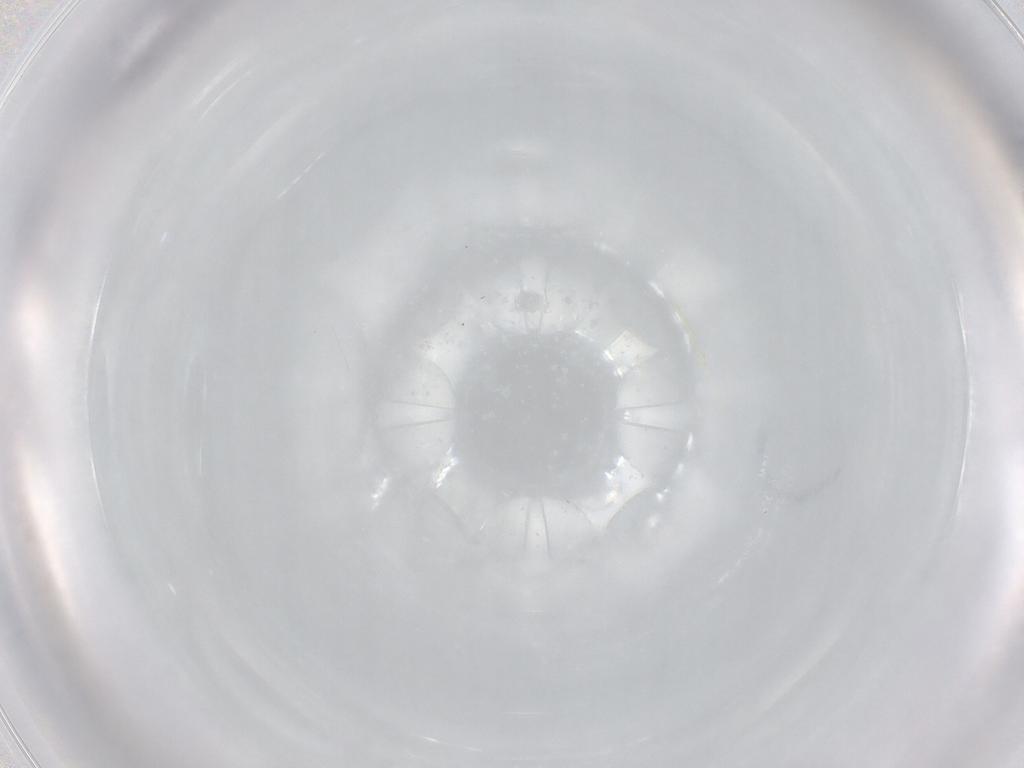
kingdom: Animalia
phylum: Arthropoda
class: Insecta
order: Hymenoptera
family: Aphelinidae
